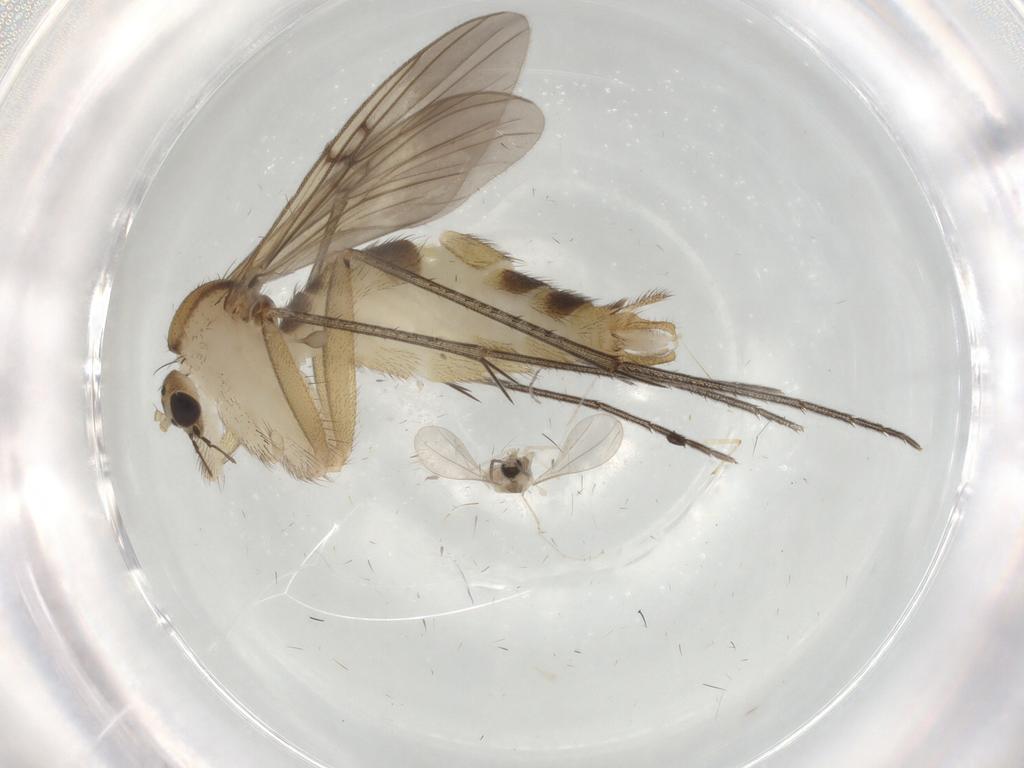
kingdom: Animalia
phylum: Arthropoda
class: Insecta
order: Diptera
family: Mycetophilidae
